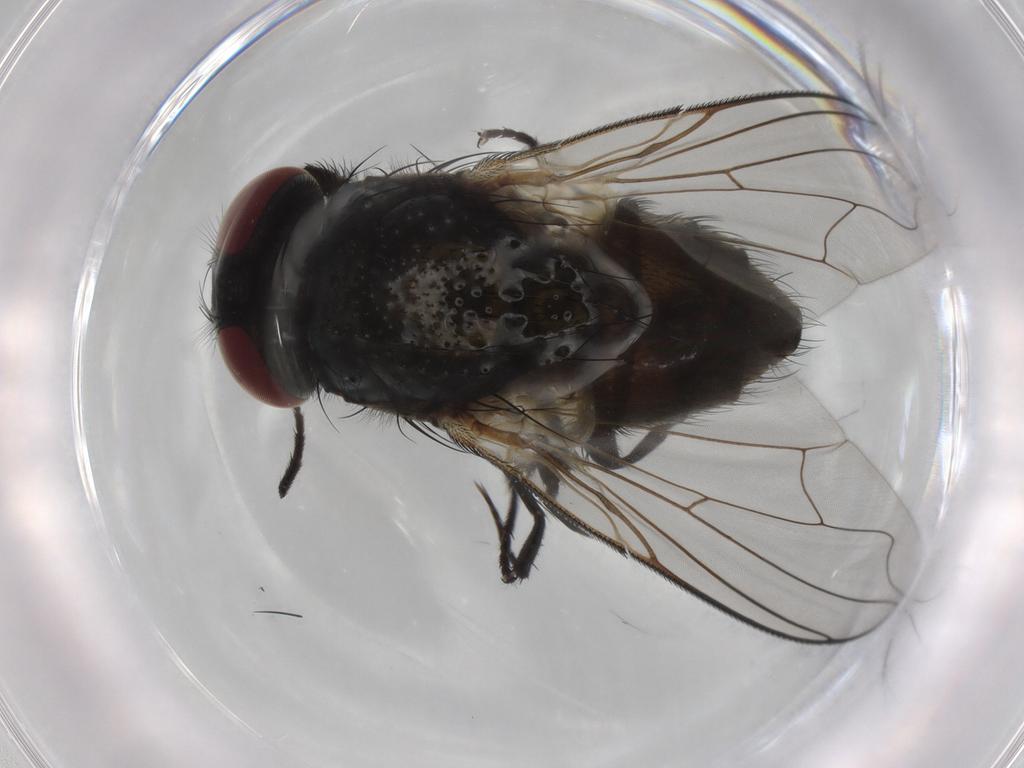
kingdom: Animalia
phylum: Arthropoda
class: Insecta
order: Diptera
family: Muscidae
